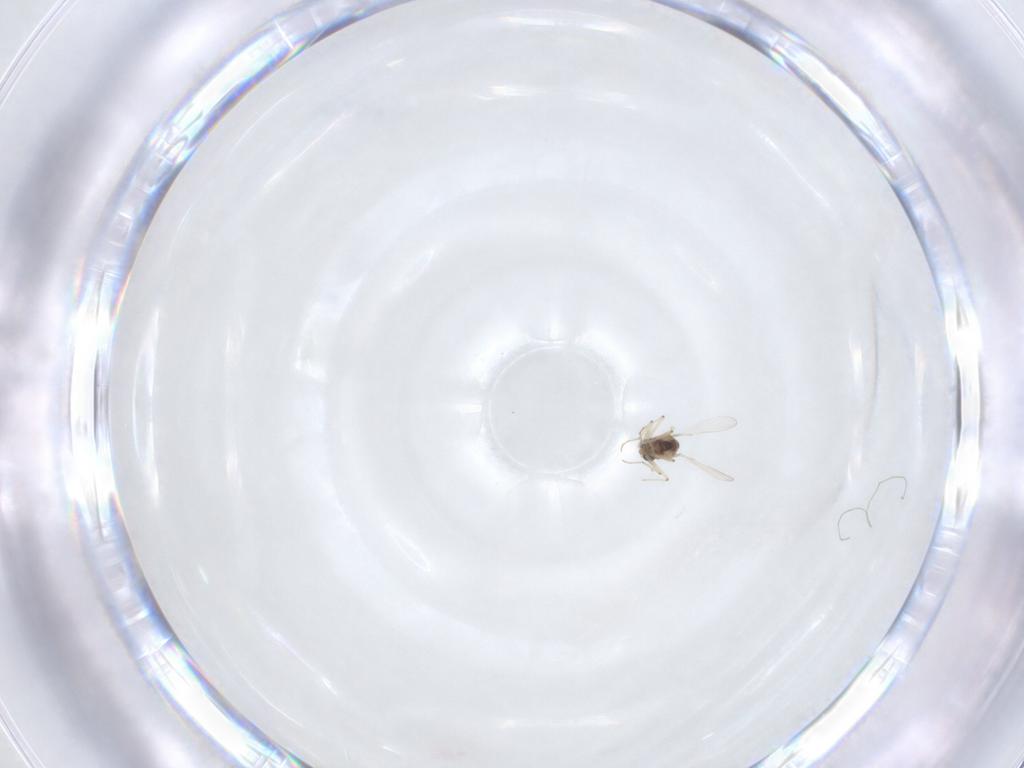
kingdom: Animalia
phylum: Arthropoda
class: Insecta
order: Diptera
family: Chironomidae
